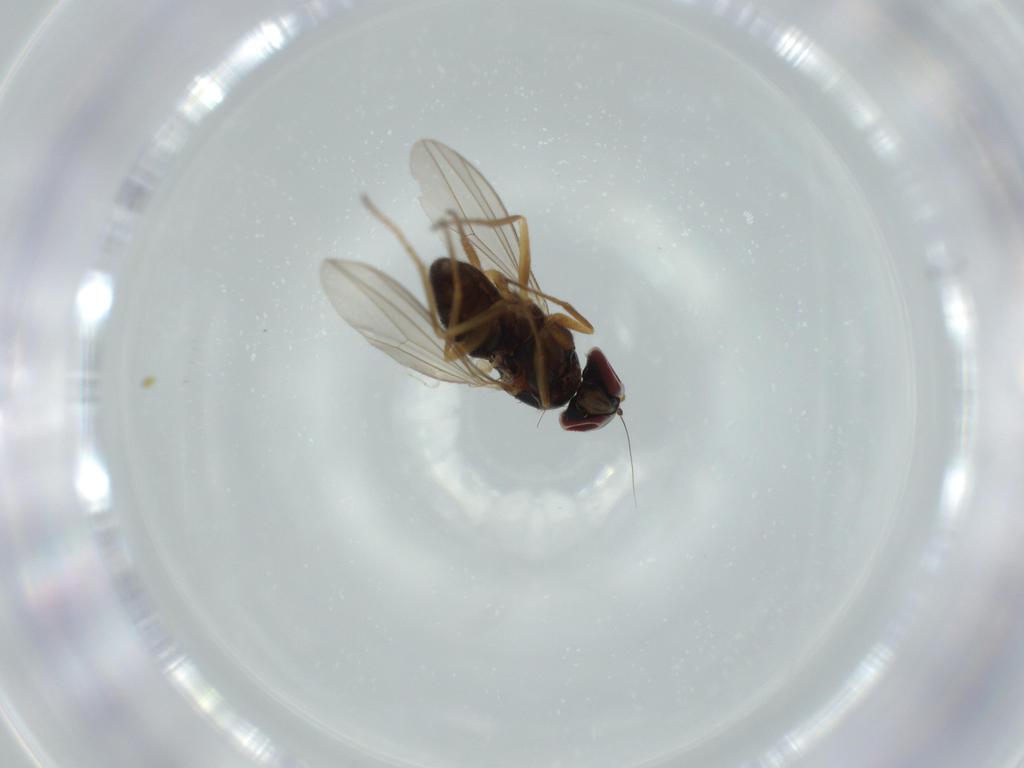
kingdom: Animalia
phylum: Arthropoda
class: Insecta
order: Diptera
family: Dolichopodidae
